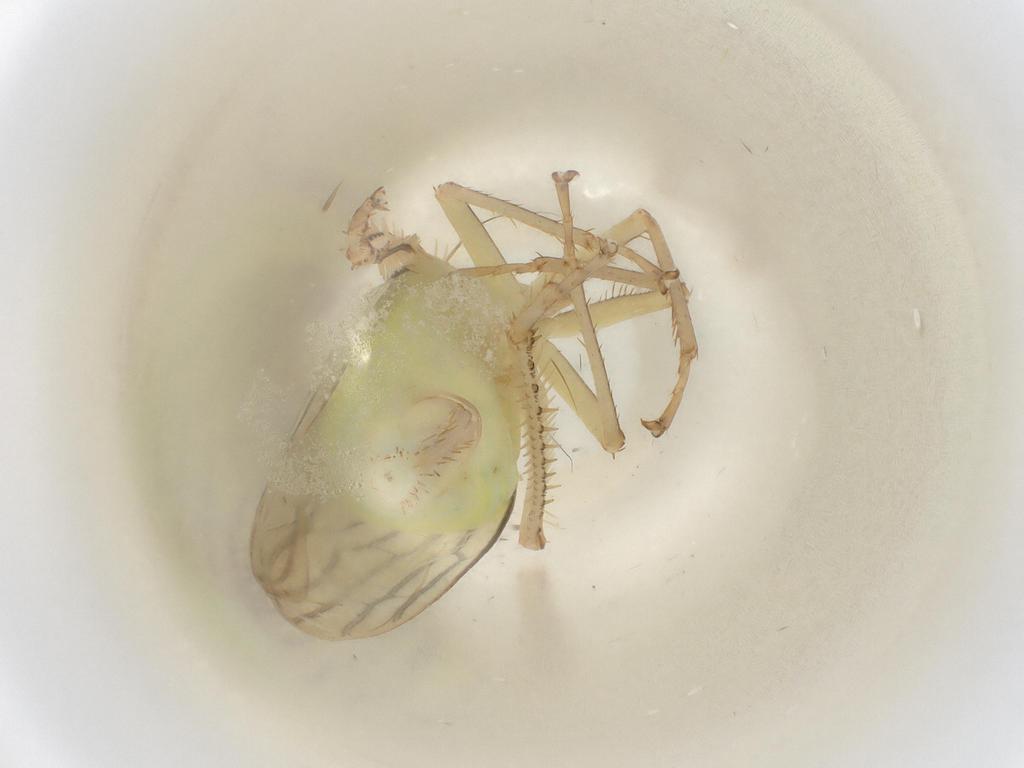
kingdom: Animalia
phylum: Arthropoda
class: Insecta
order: Hemiptera
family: Cicadellidae
